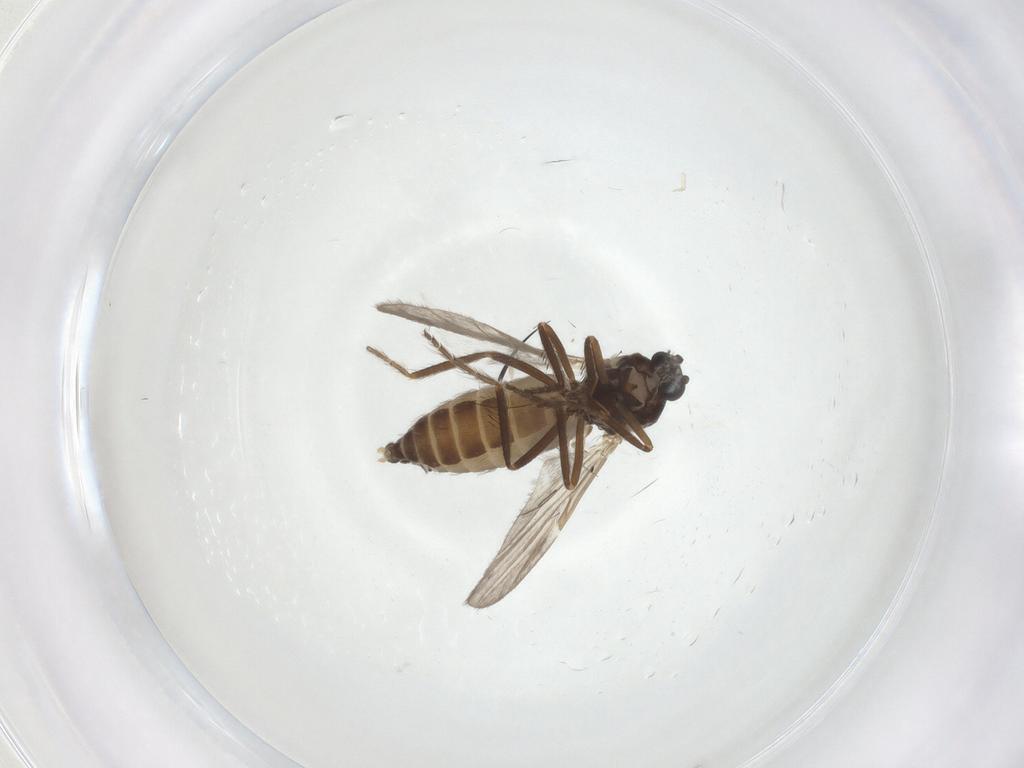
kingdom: Animalia
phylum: Arthropoda
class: Insecta
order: Diptera
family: Ceratopogonidae
